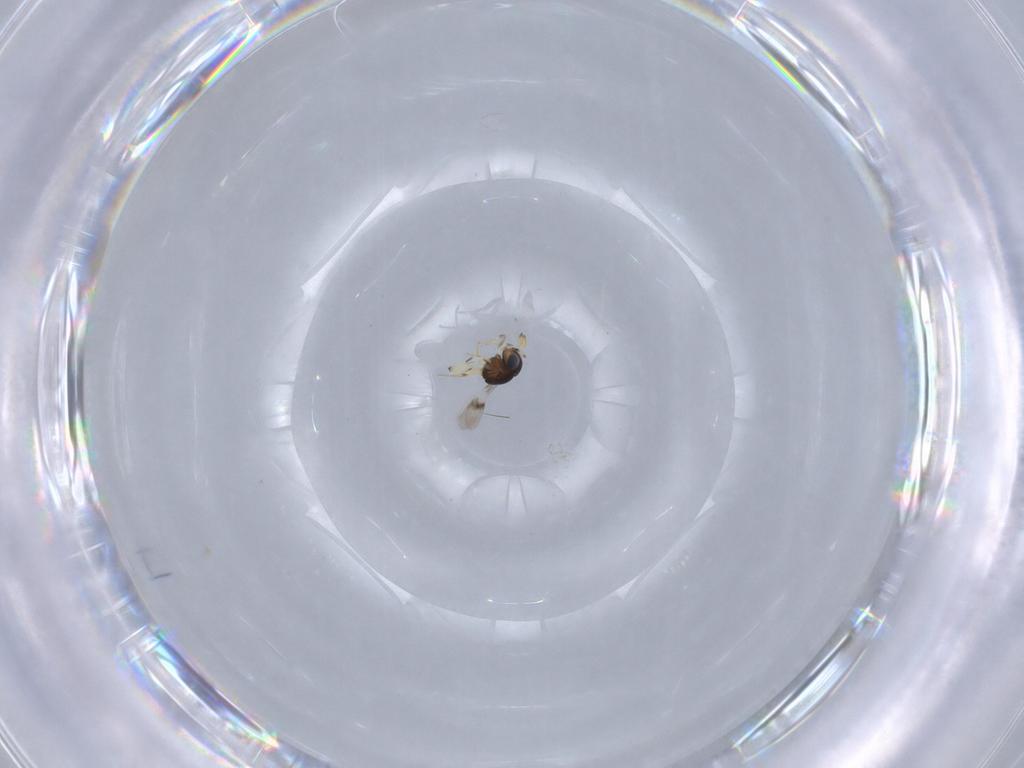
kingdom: Animalia
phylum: Arthropoda
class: Insecta
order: Hymenoptera
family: Scelionidae
